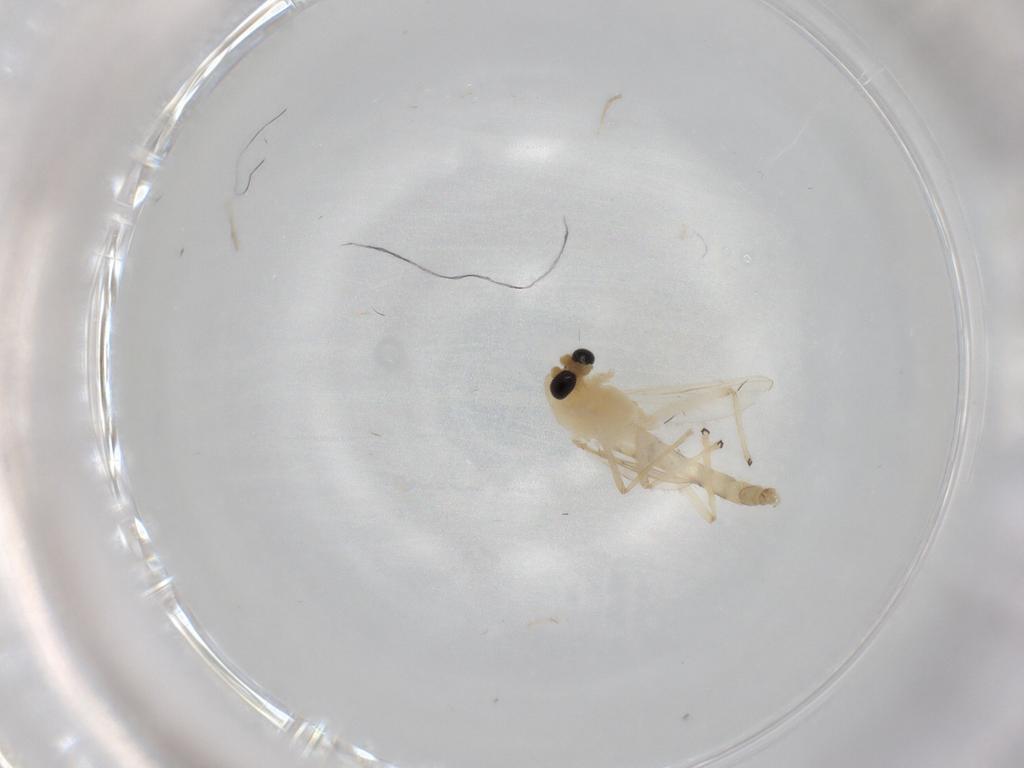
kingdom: Animalia
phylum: Arthropoda
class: Insecta
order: Diptera
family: Chironomidae
